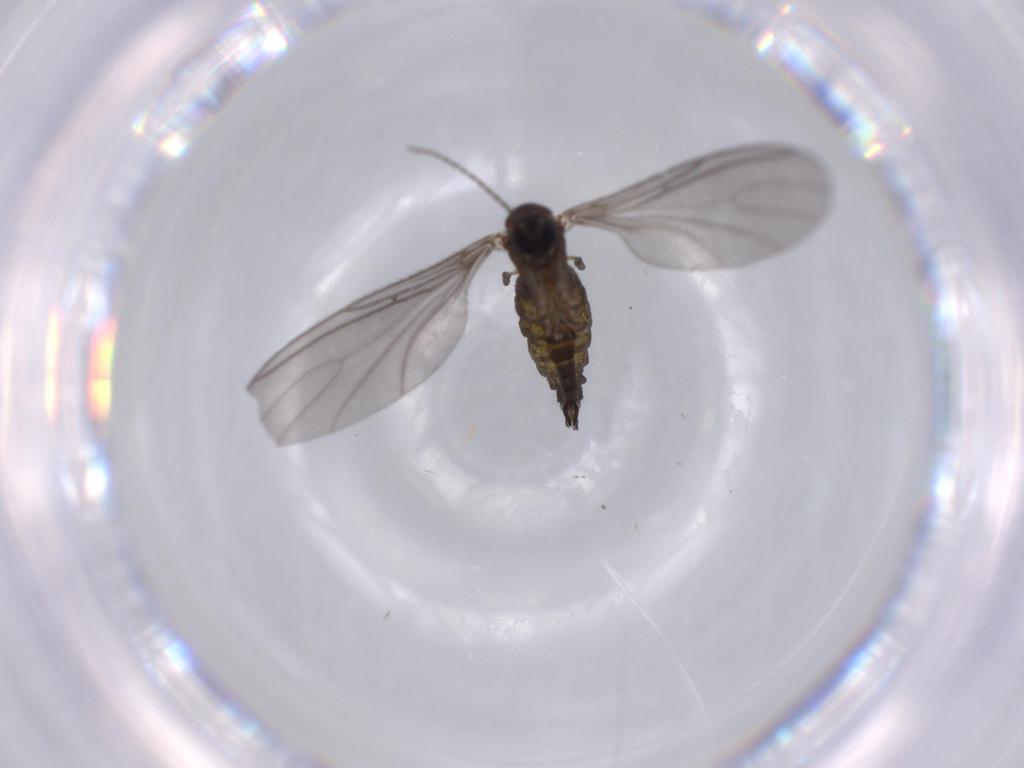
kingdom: Animalia
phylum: Arthropoda
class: Insecta
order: Diptera
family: Sciaridae
